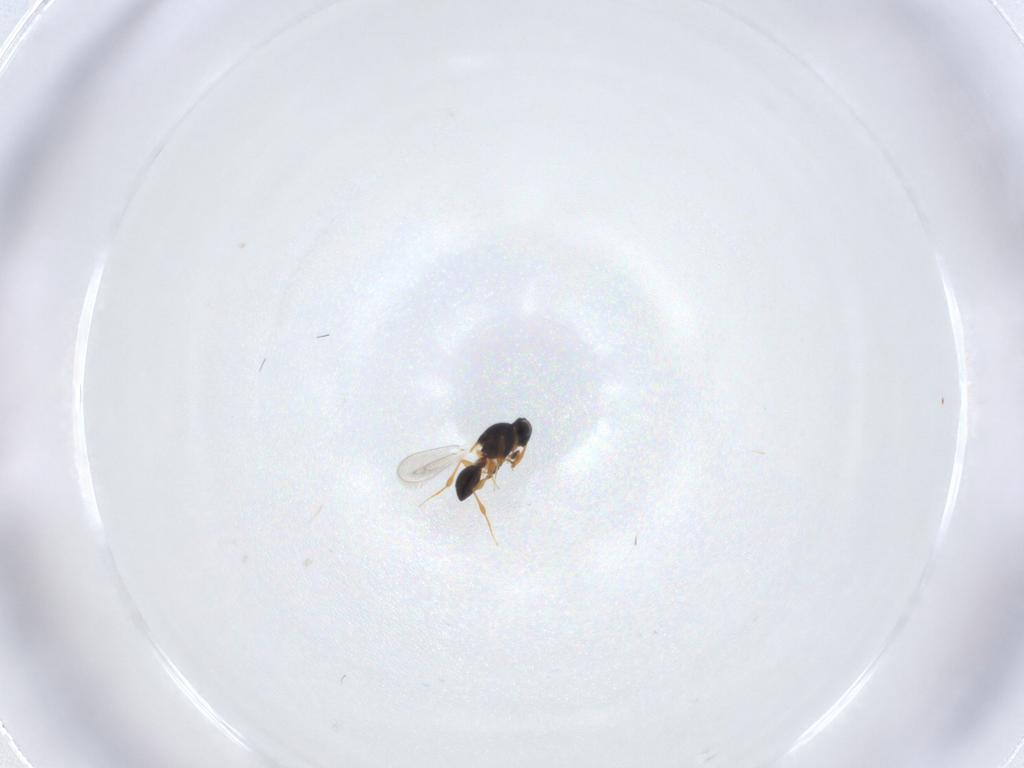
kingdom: Animalia
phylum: Arthropoda
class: Insecta
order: Hymenoptera
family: Platygastridae
